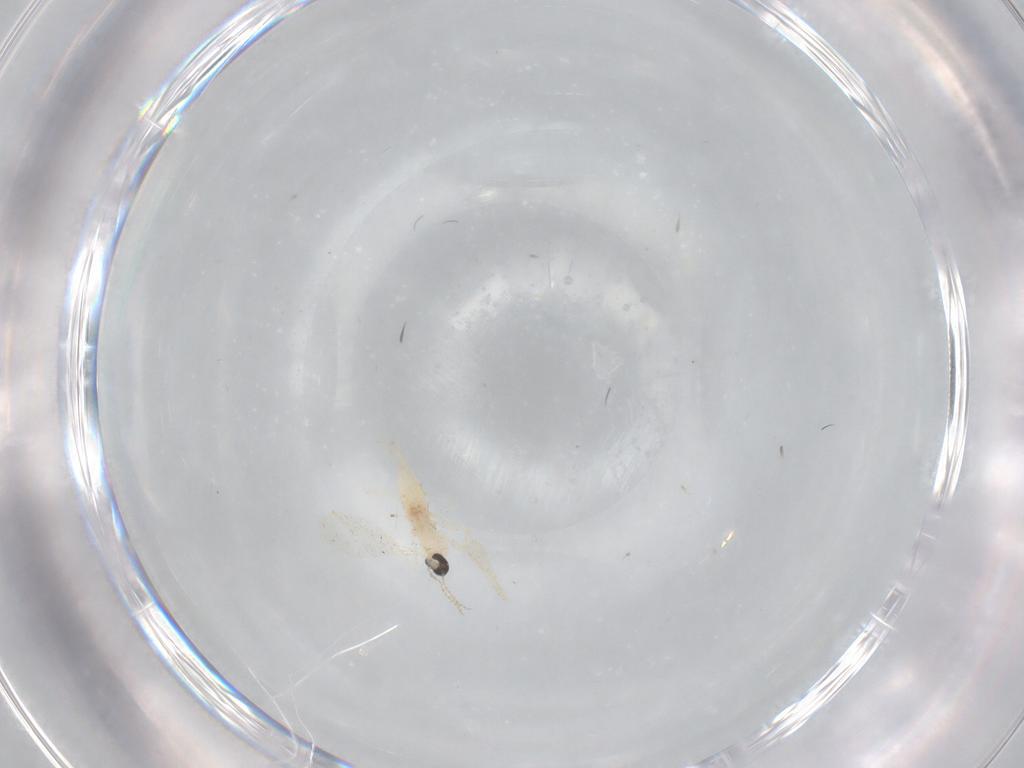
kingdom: Animalia
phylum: Arthropoda
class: Insecta
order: Diptera
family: Cecidomyiidae
